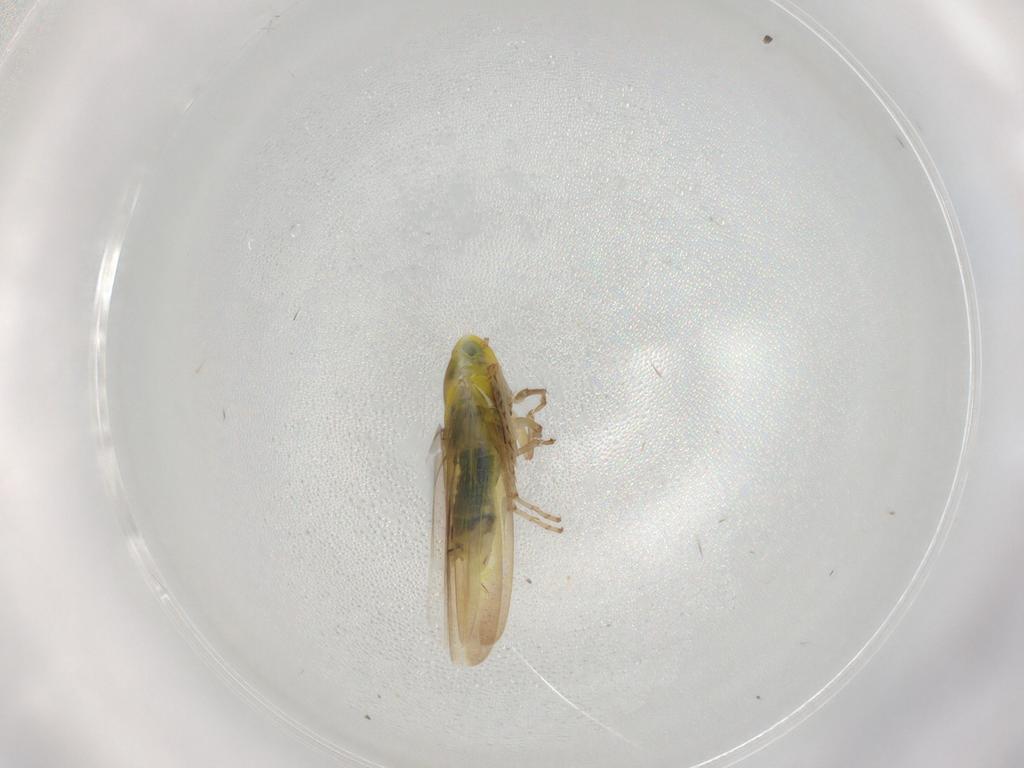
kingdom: Animalia
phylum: Arthropoda
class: Insecta
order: Hemiptera
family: Cicadellidae
